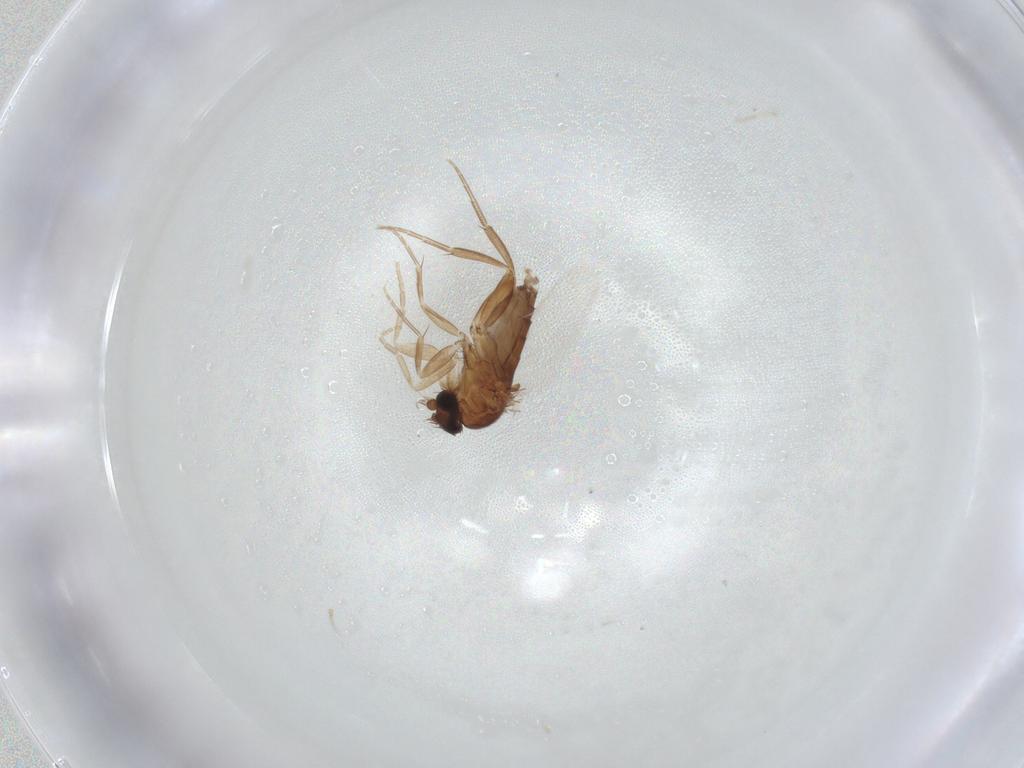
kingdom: Animalia
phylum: Arthropoda
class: Insecta
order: Diptera
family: Phoridae
